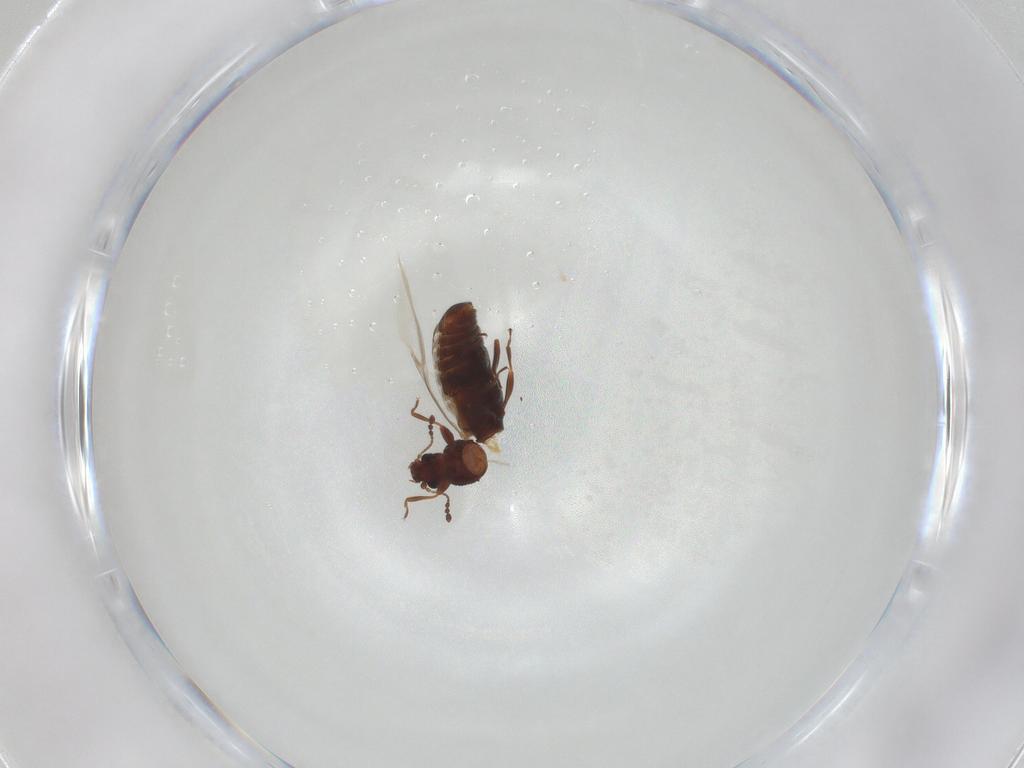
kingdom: Animalia
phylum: Arthropoda
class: Insecta
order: Coleoptera
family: Latridiidae
